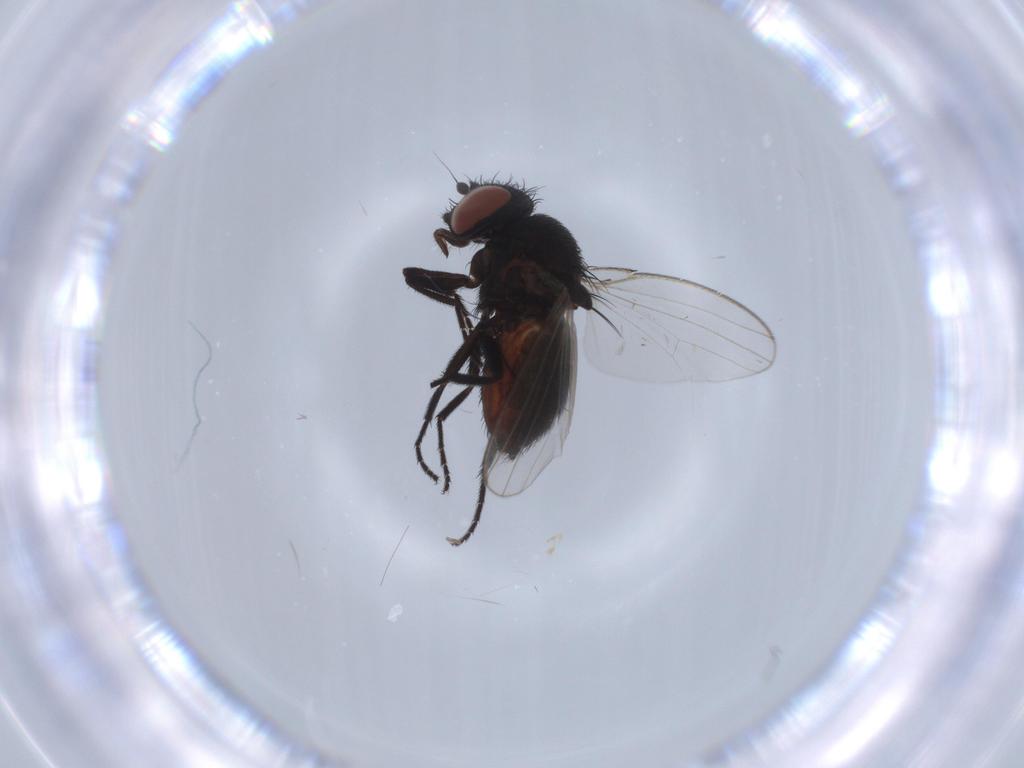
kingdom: Animalia
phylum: Arthropoda
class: Insecta
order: Diptera
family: Ceratopogonidae
